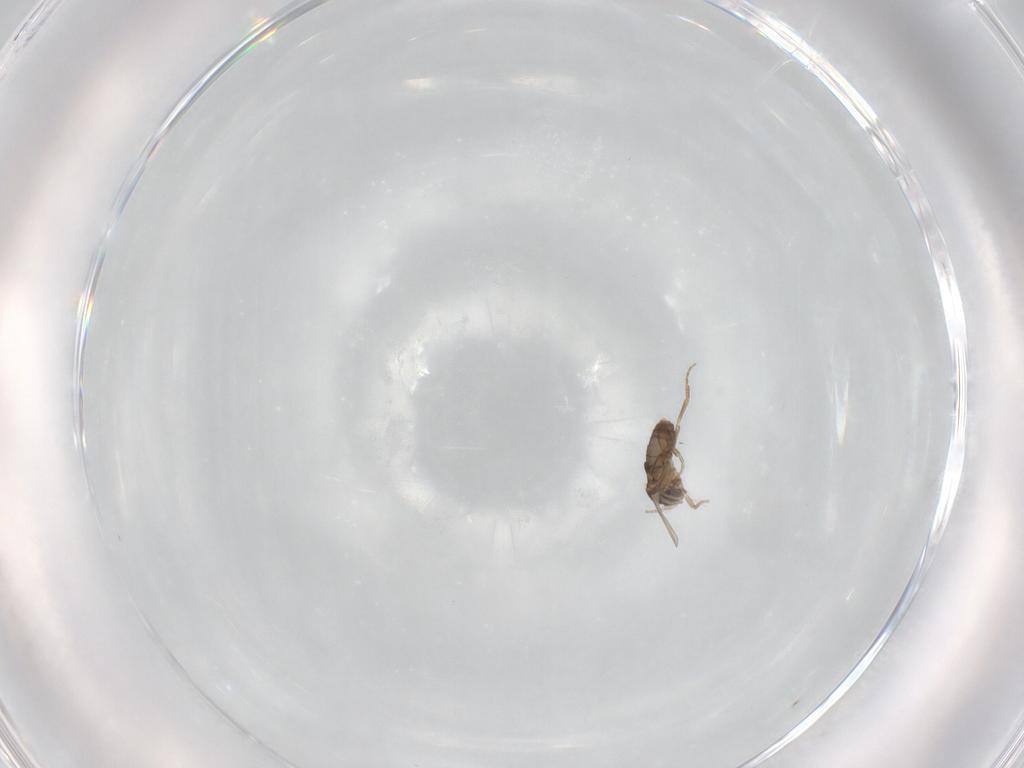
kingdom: Animalia
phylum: Arthropoda
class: Insecta
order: Diptera
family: Phoridae
